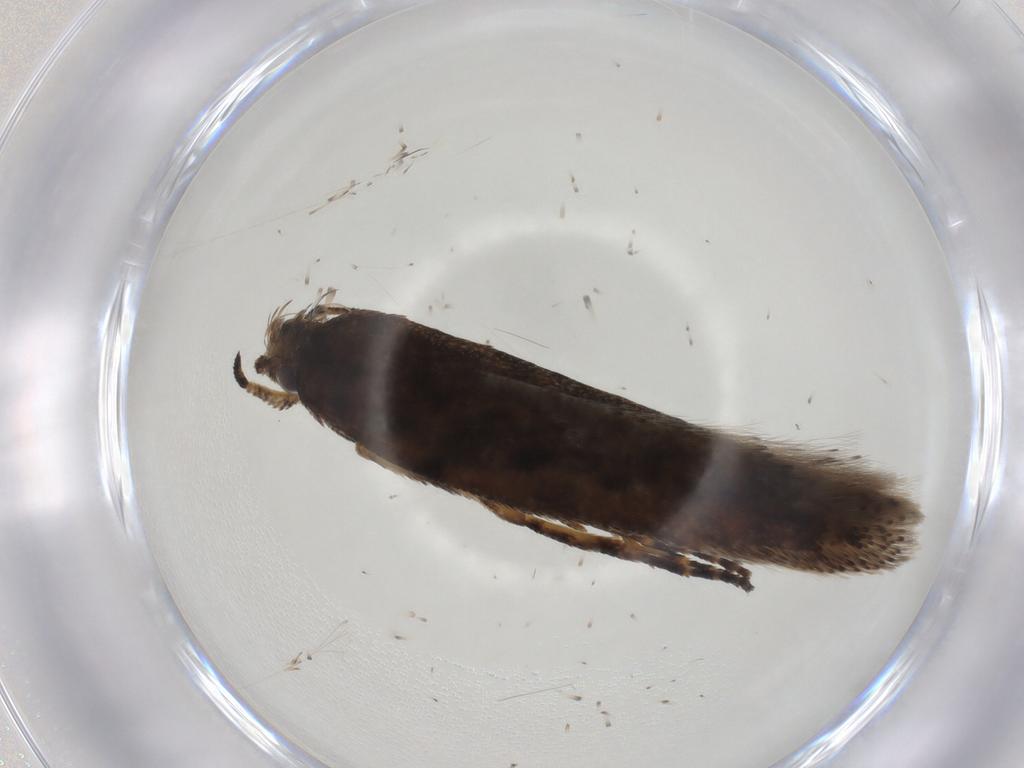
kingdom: Animalia
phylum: Arthropoda
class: Insecta
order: Lepidoptera
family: Gelechiidae
